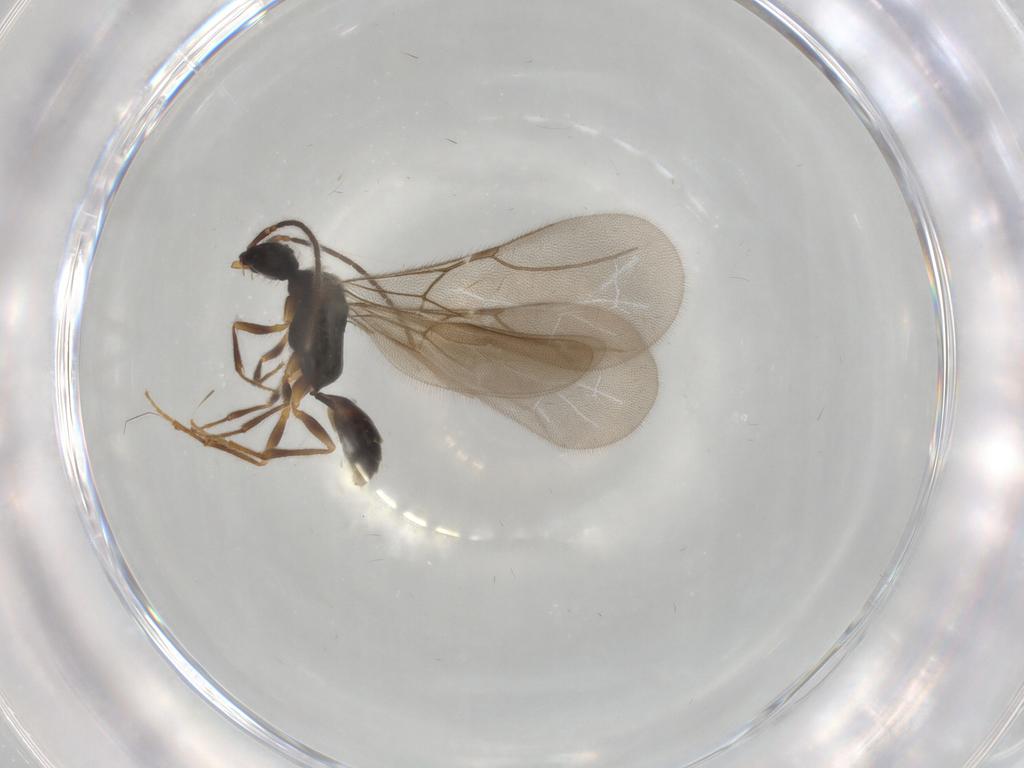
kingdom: Animalia
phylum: Arthropoda
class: Insecta
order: Hymenoptera
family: Bethylidae
